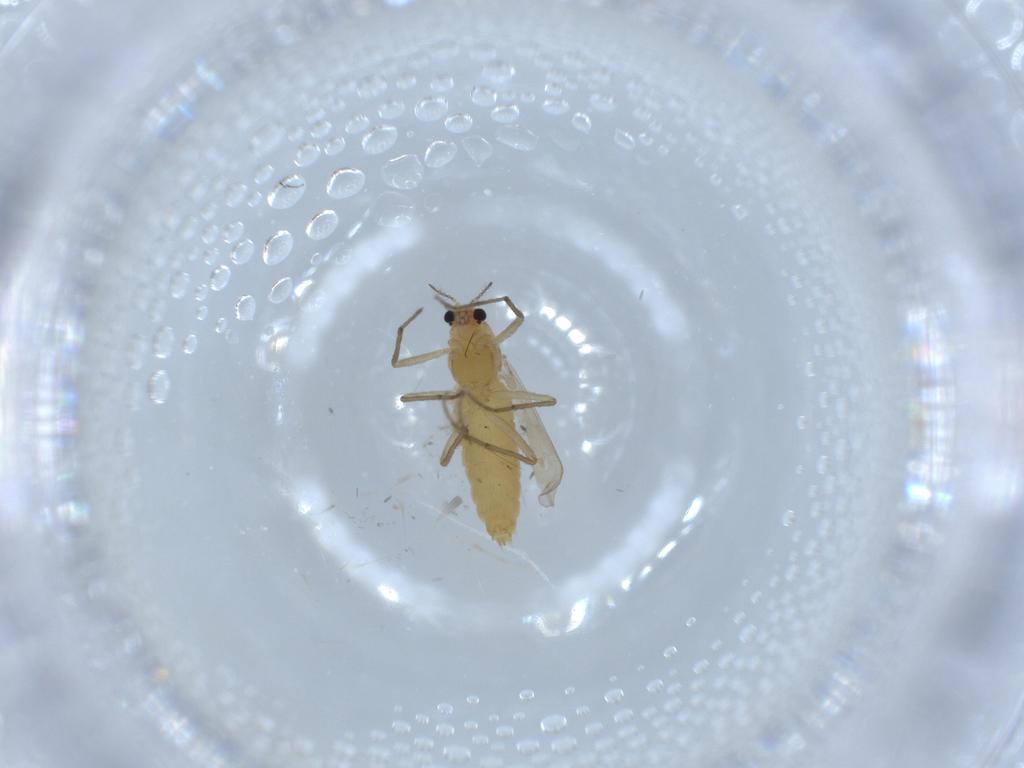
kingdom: Animalia
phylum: Arthropoda
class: Insecta
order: Diptera
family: Chironomidae
